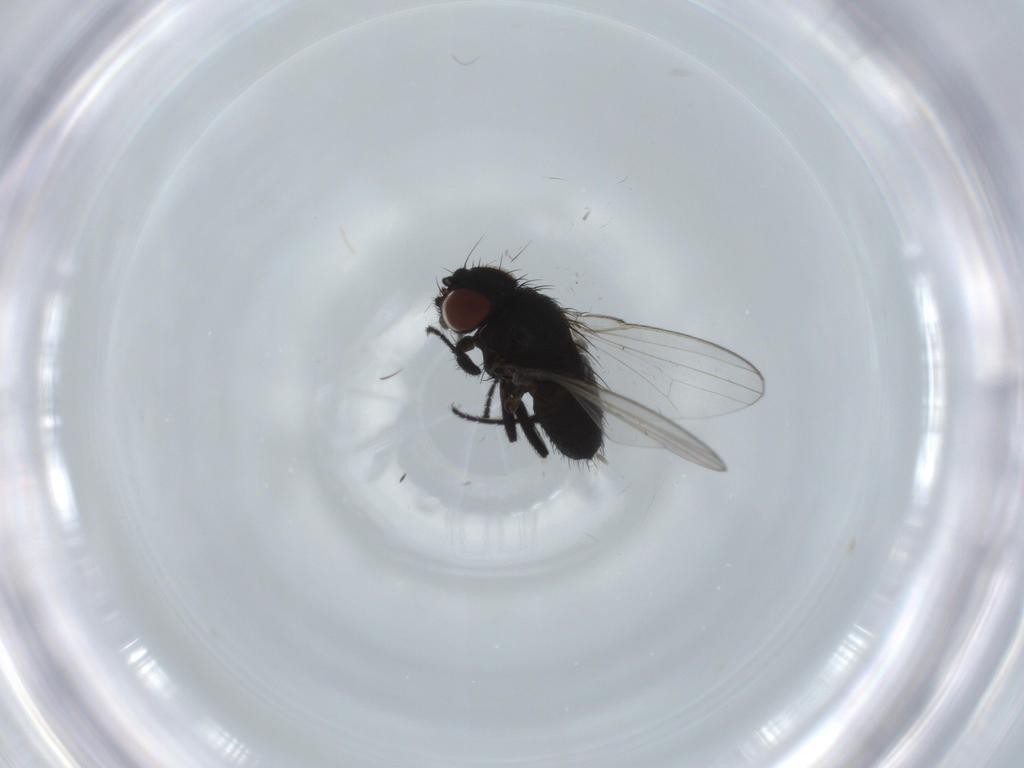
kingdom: Animalia
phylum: Arthropoda
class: Insecta
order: Diptera
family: Milichiidae
